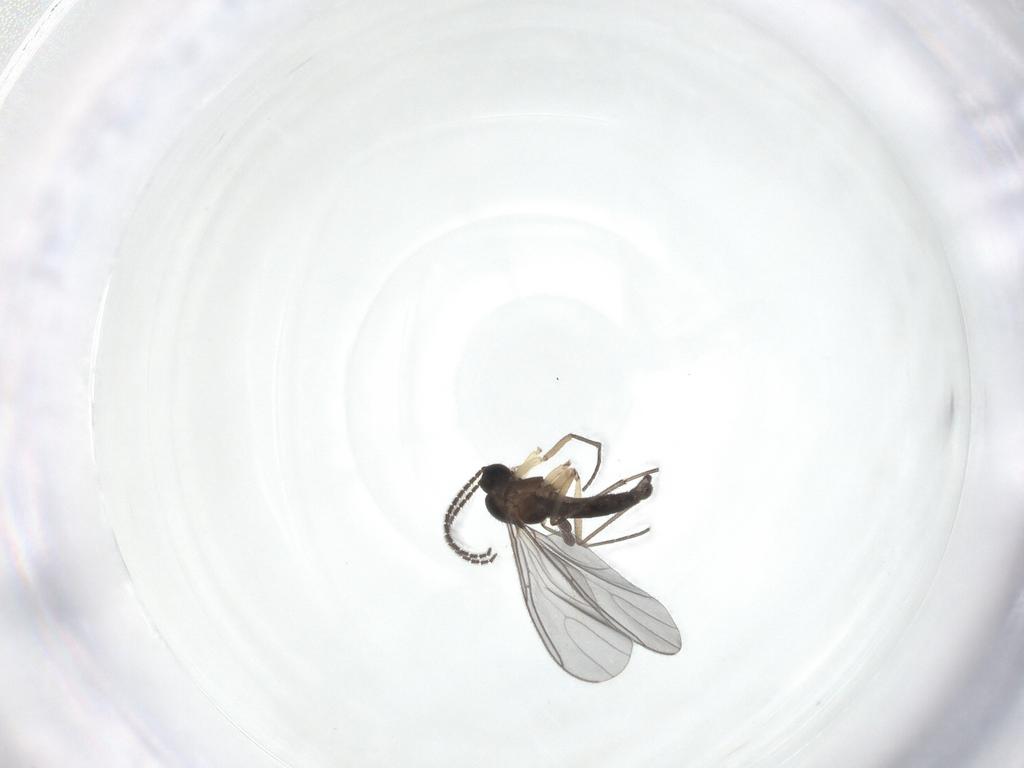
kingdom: Animalia
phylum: Arthropoda
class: Insecta
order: Diptera
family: Sciaridae
